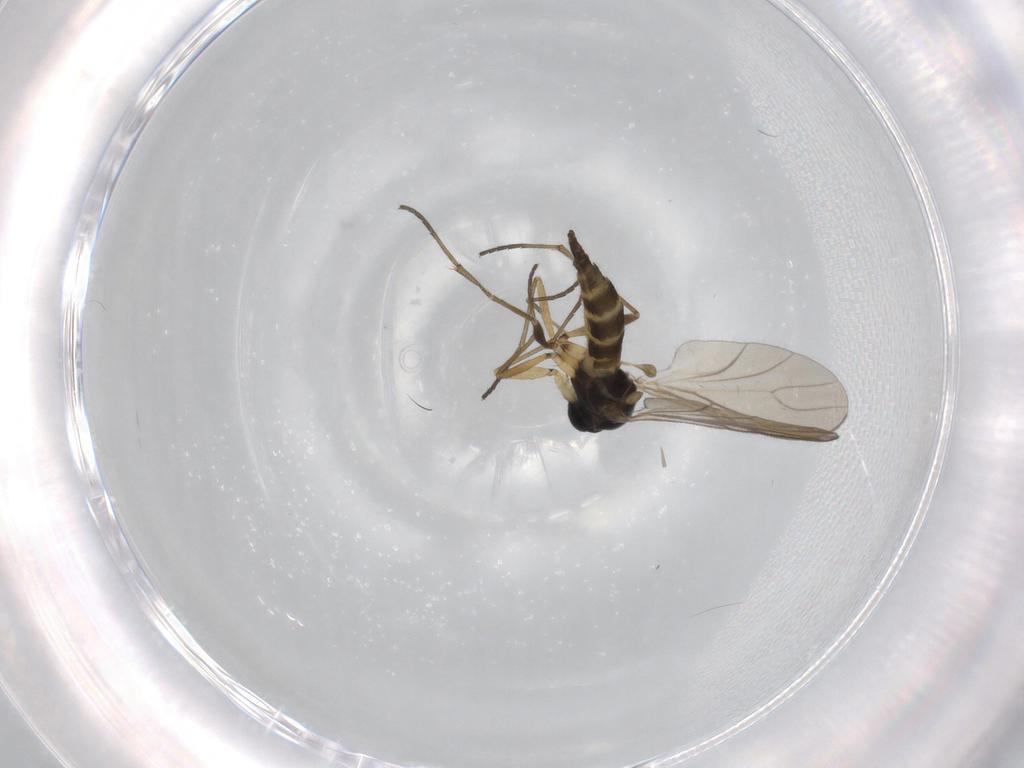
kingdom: Animalia
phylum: Arthropoda
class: Insecta
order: Diptera
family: Sciaridae
